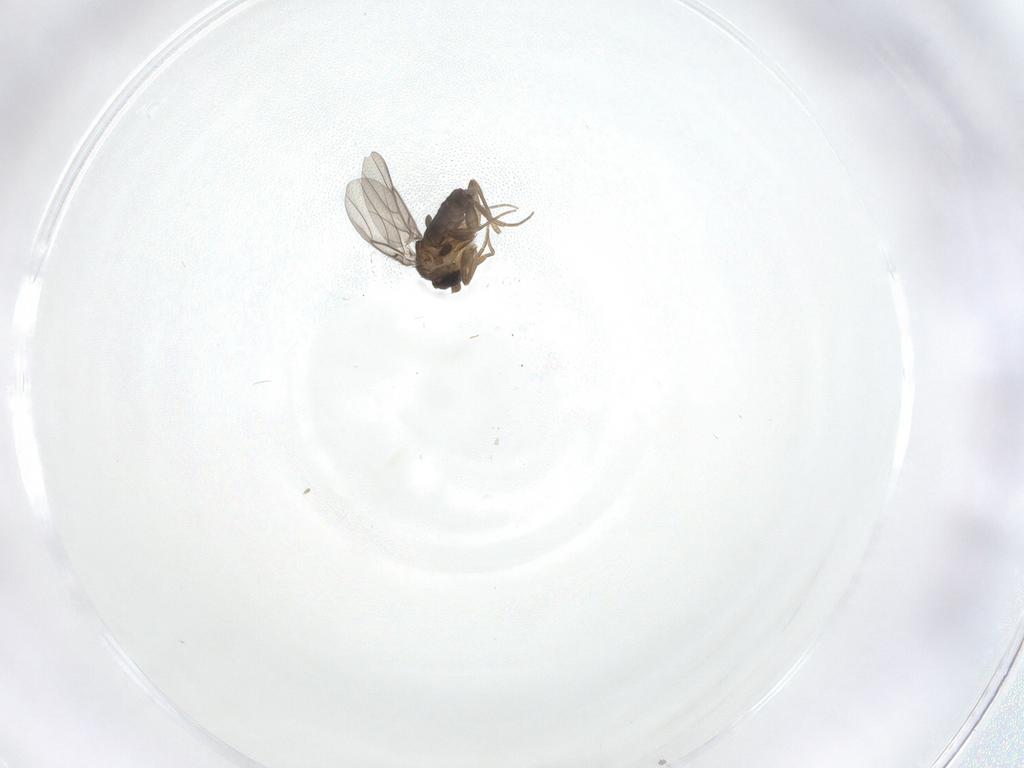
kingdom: Animalia
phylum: Arthropoda
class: Insecta
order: Diptera
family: Phoridae
